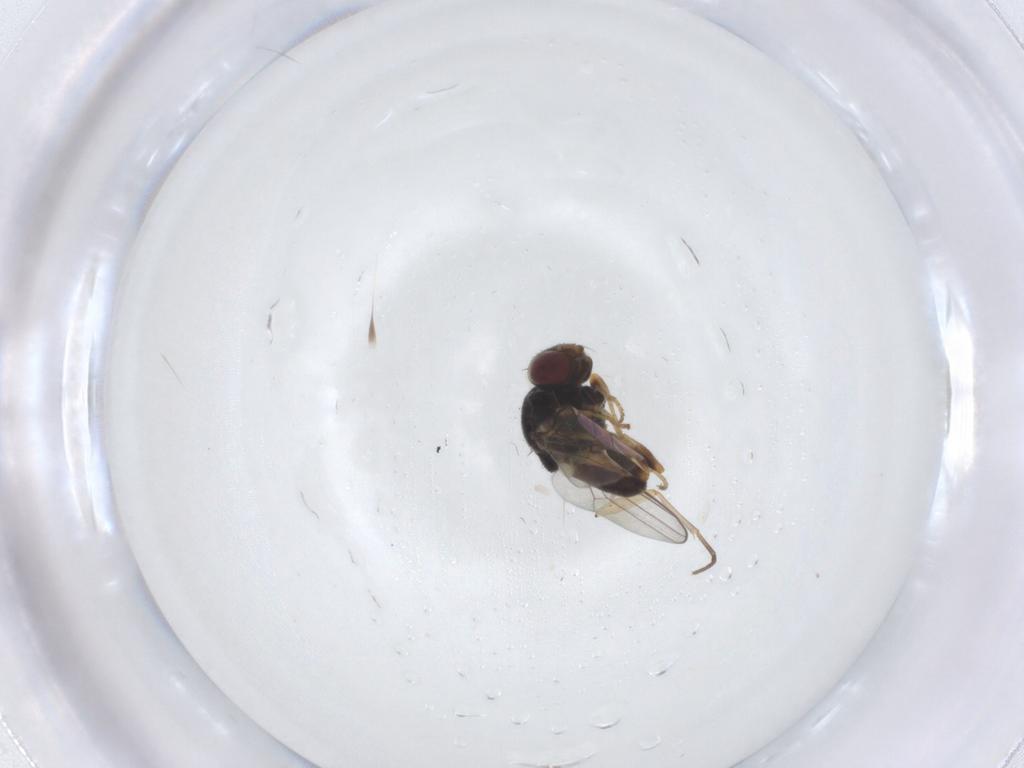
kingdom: Animalia
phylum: Arthropoda
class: Insecta
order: Diptera
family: Chloropidae
